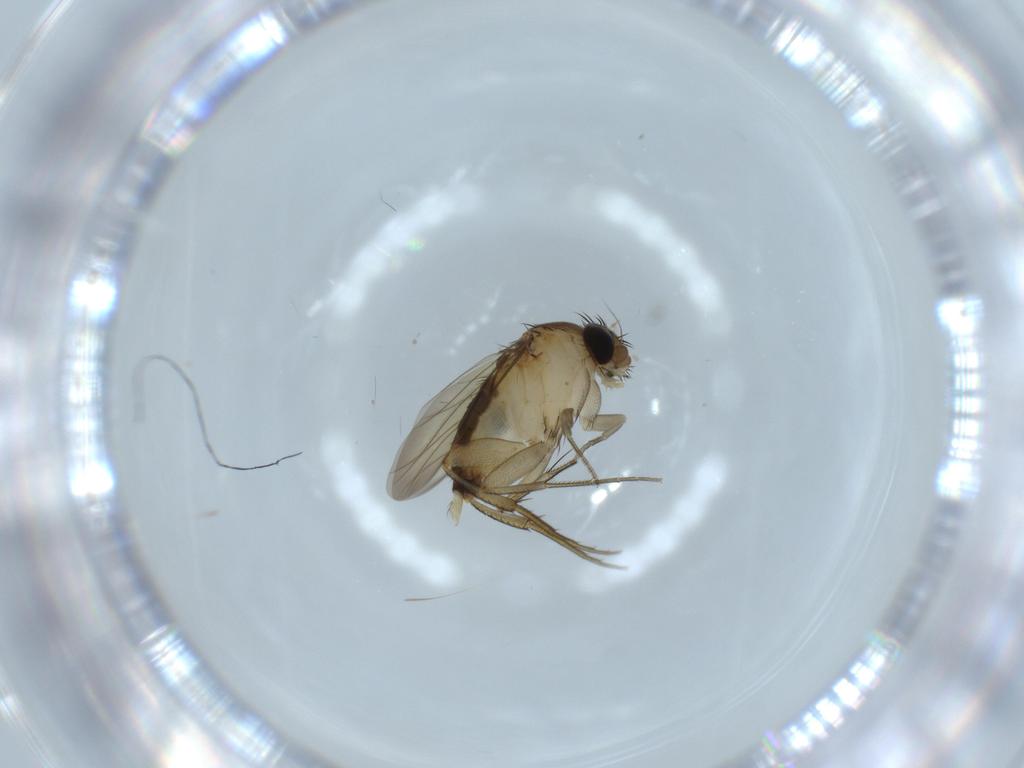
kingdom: Animalia
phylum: Arthropoda
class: Insecta
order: Diptera
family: Phoridae
